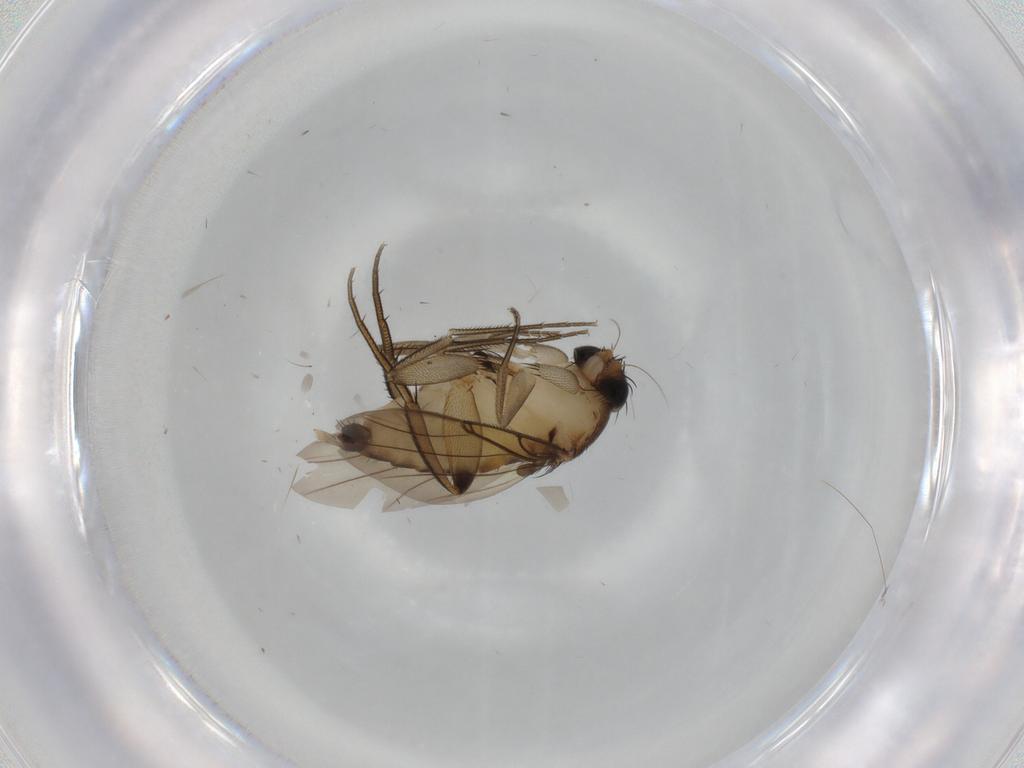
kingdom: Animalia
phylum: Arthropoda
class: Insecta
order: Diptera
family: Phoridae
